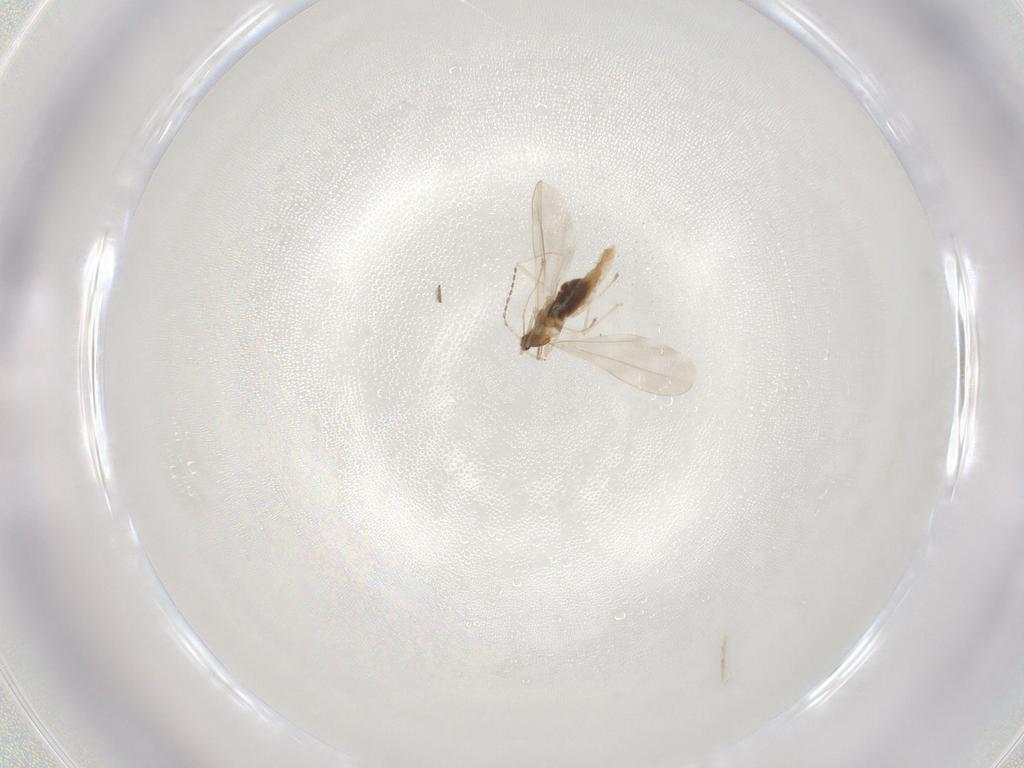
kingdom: Animalia
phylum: Arthropoda
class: Insecta
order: Diptera
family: Cecidomyiidae
